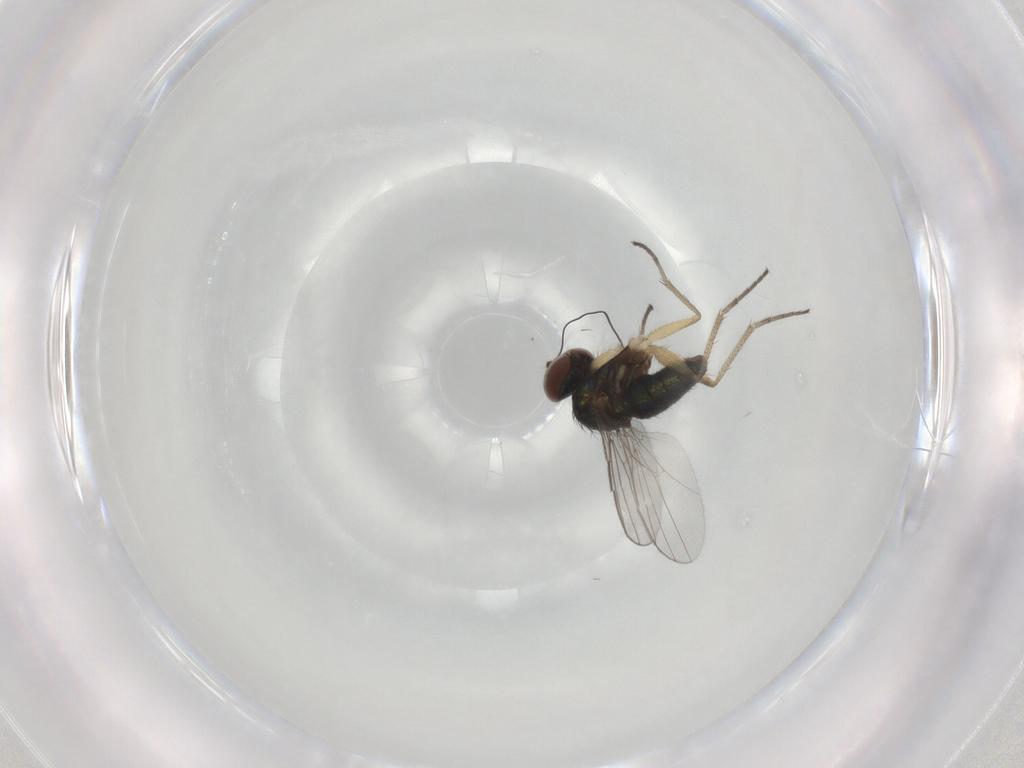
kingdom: Animalia
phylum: Arthropoda
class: Insecta
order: Diptera
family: Dolichopodidae
